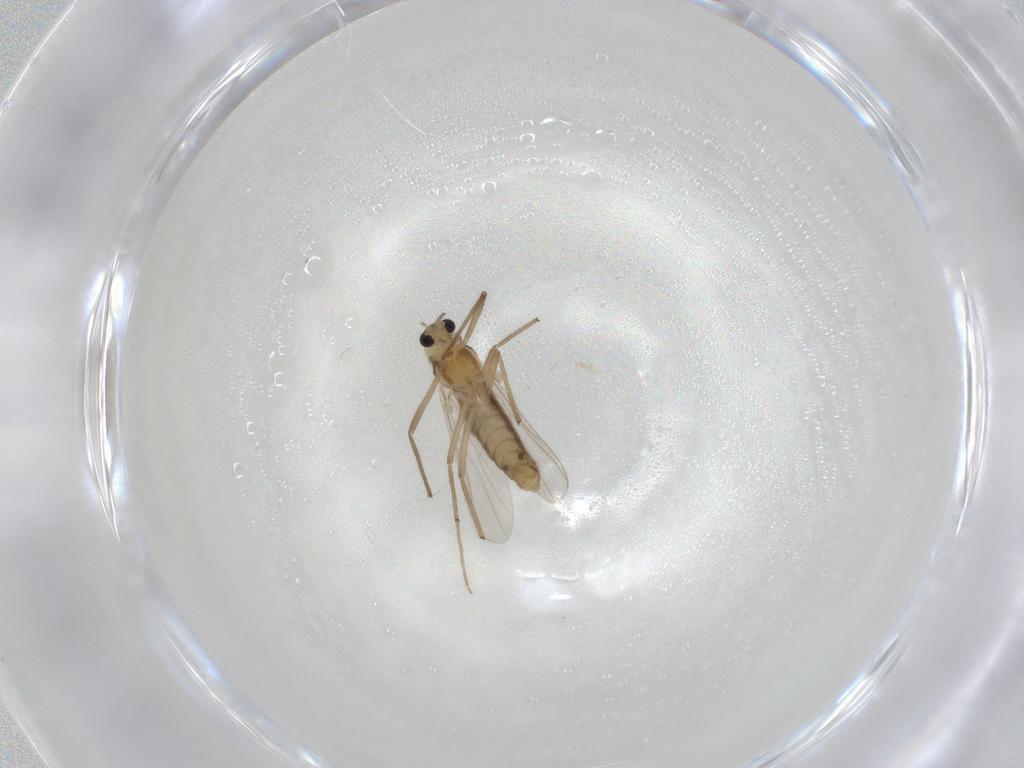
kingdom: Animalia
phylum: Arthropoda
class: Insecta
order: Diptera
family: Chironomidae
